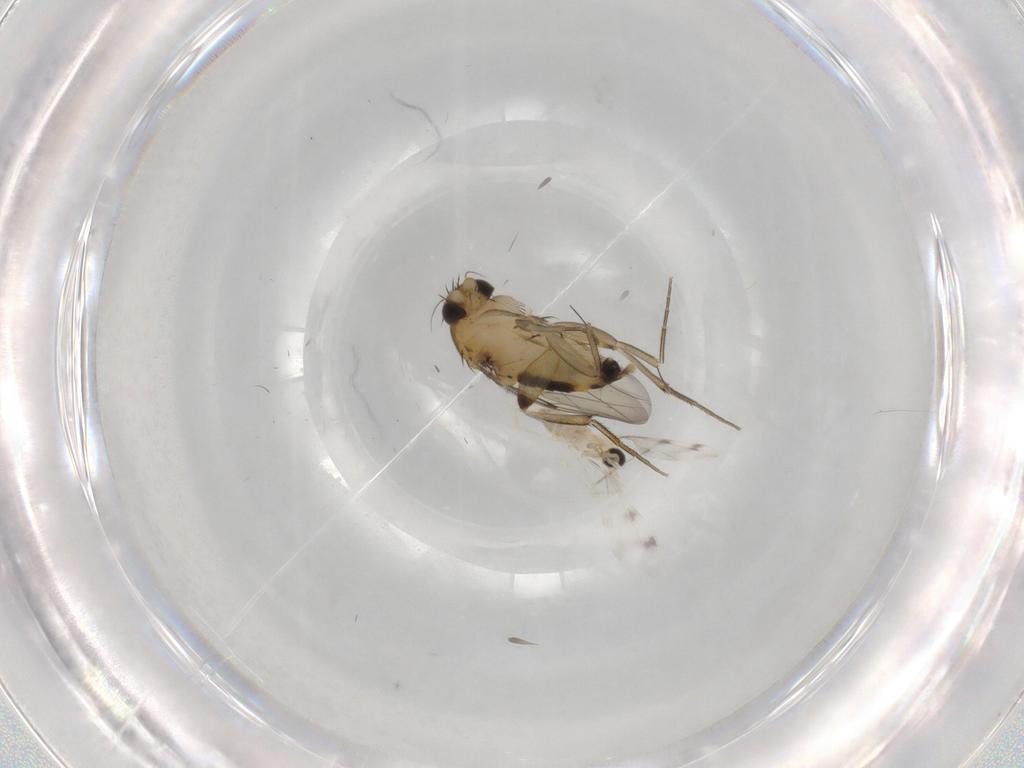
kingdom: Animalia
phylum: Arthropoda
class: Insecta
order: Diptera
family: Phoridae
